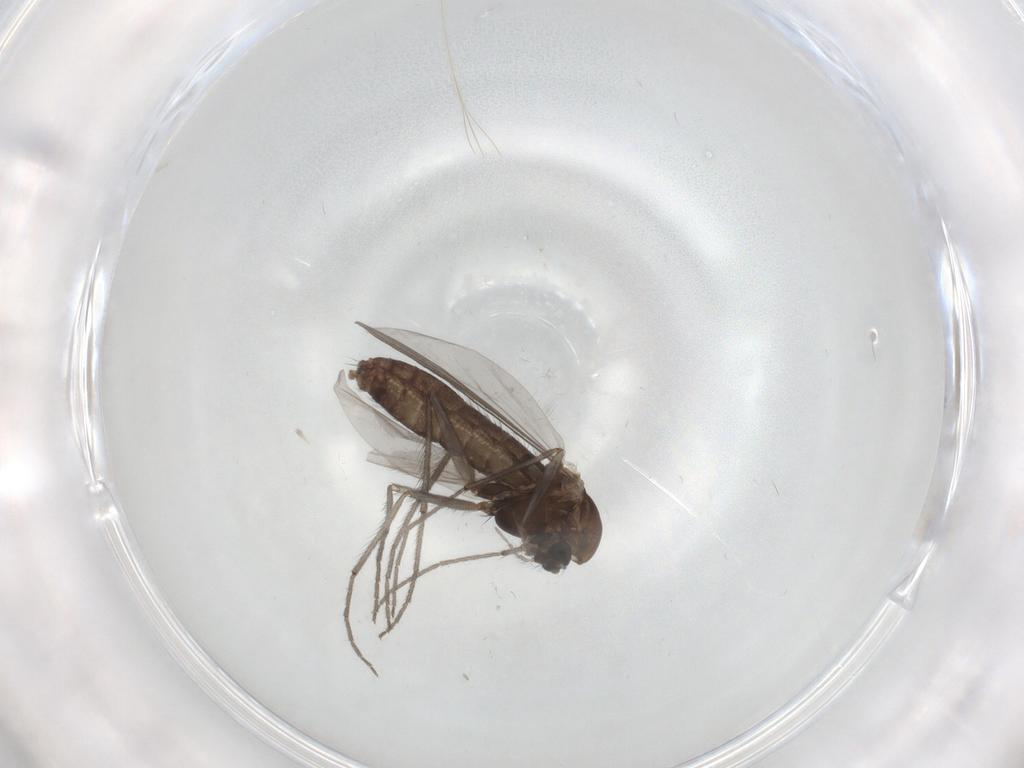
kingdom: Animalia
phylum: Arthropoda
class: Insecta
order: Diptera
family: Chironomidae
